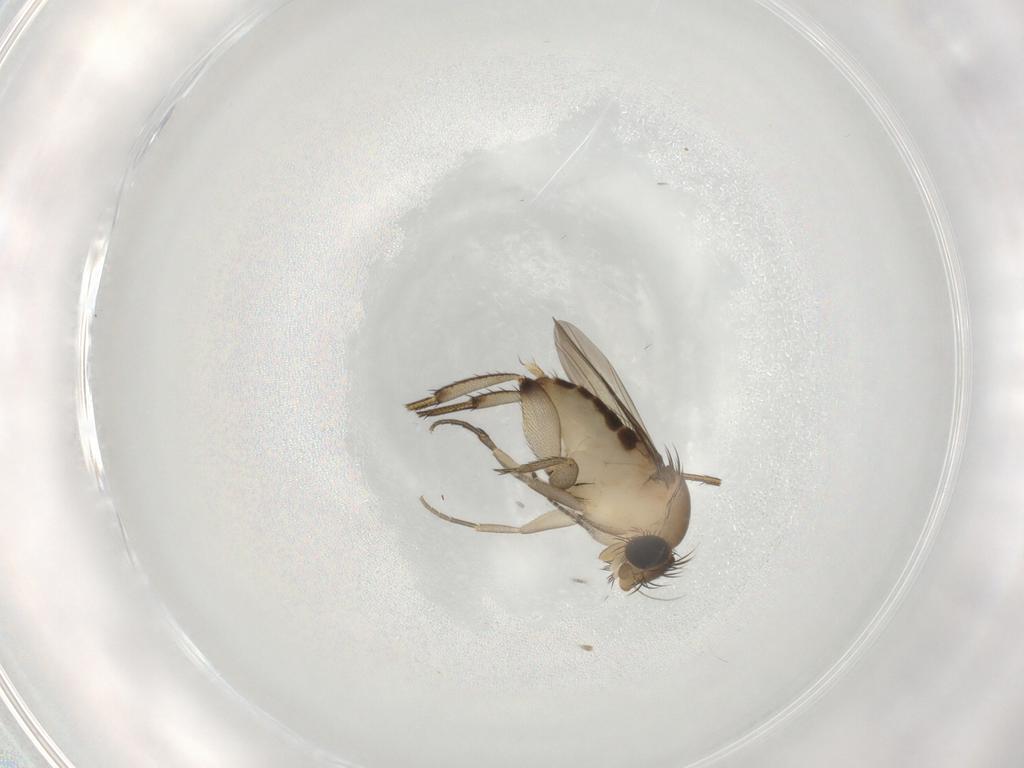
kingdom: Animalia
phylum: Arthropoda
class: Insecta
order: Diptera
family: Phoridae
